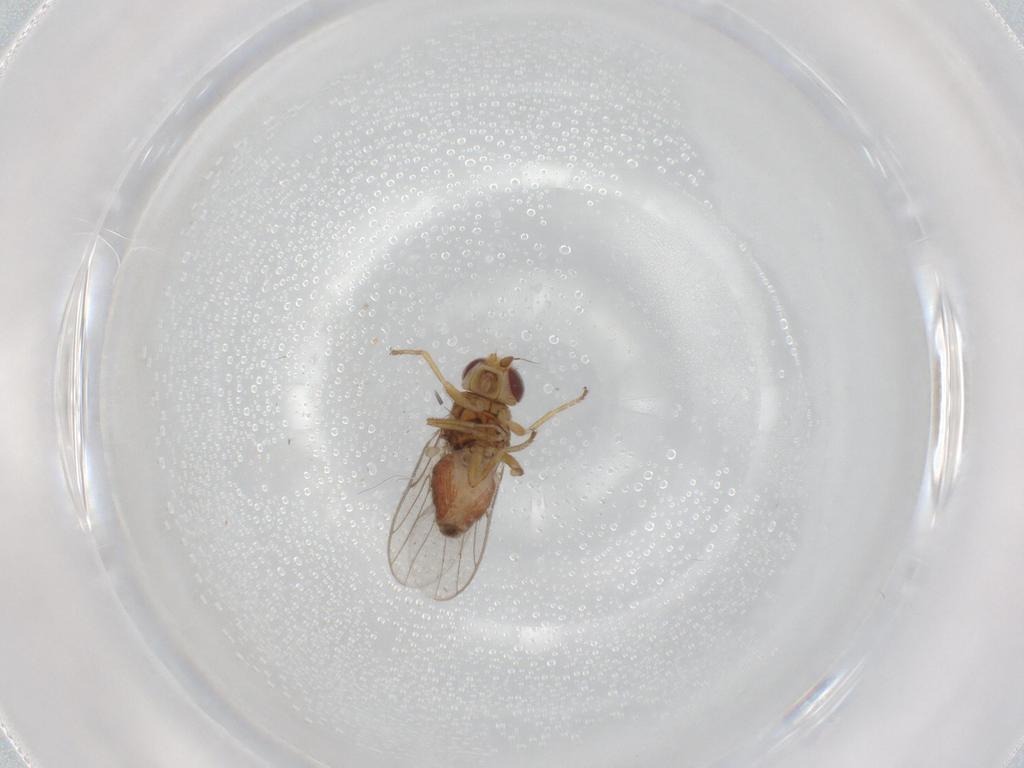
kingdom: Animalia
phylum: Arthropoda
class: Insecta
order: Diptera
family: Chloropidae
